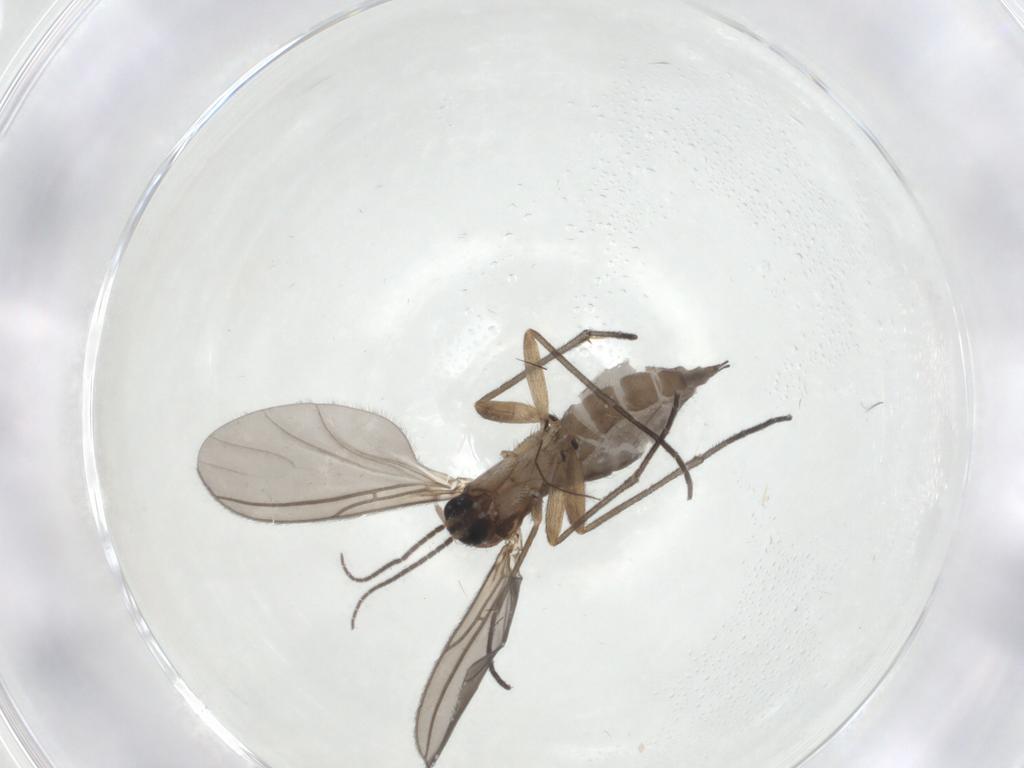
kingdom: Animalia
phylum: Arthropoda
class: Insecta
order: Diptera
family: Sciaridae
